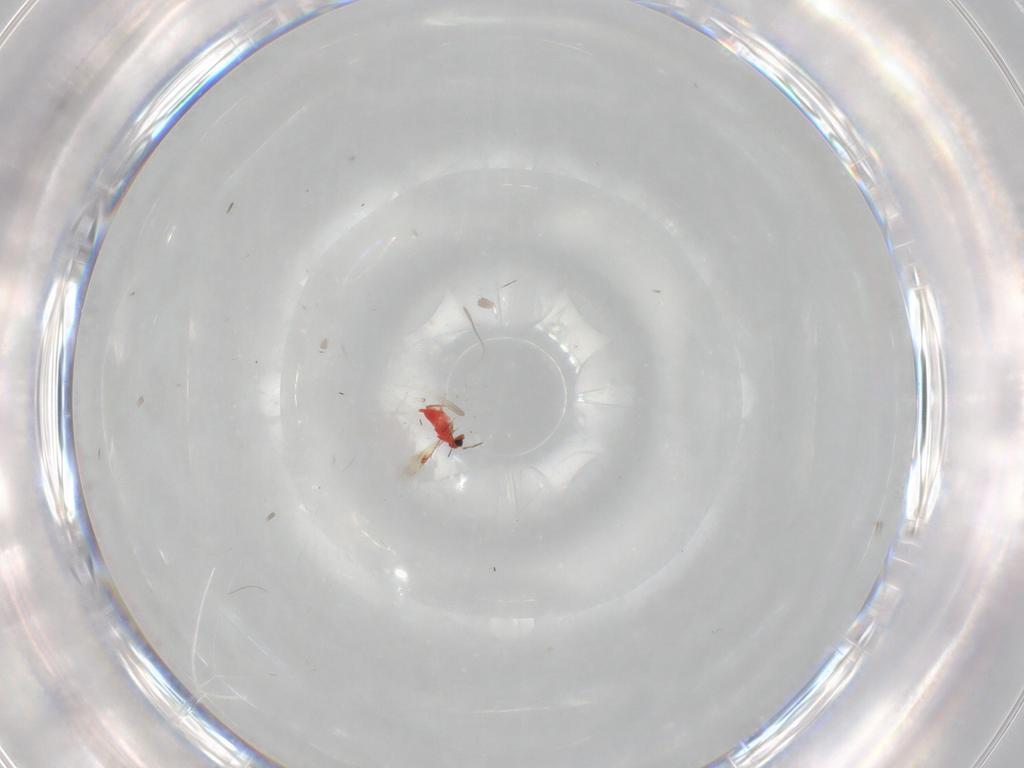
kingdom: Animalia
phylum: Arthropoda
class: Insecta
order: Hymenoptera
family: Trichogrammatidae
